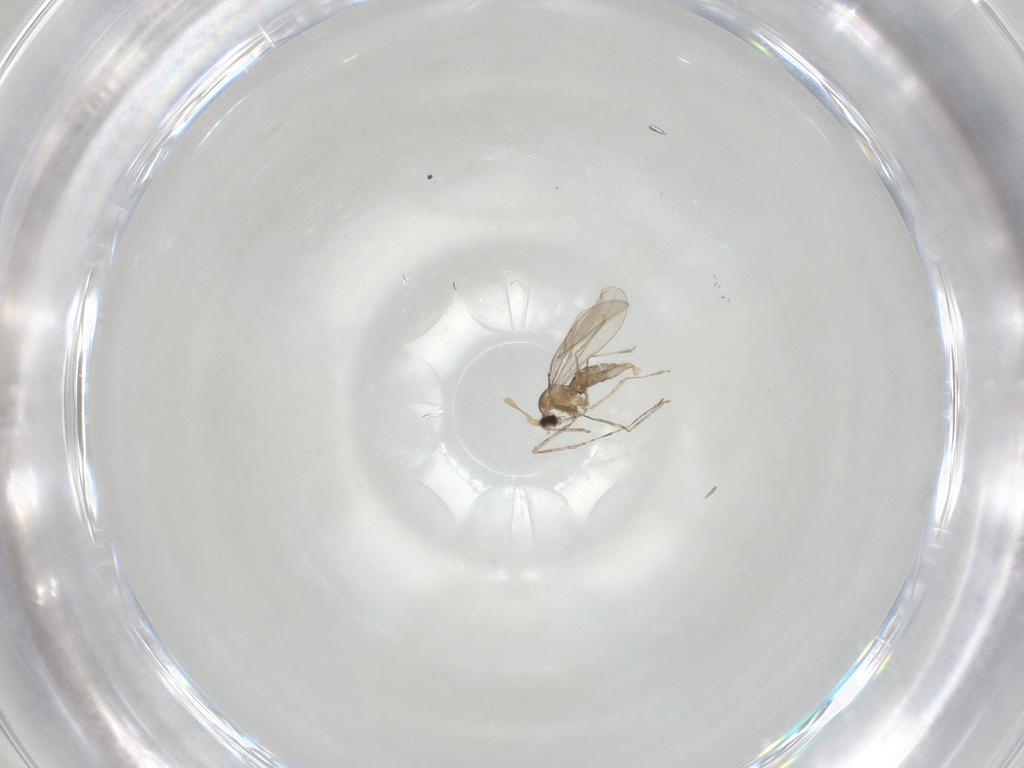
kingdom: Animalia
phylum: Arthropoda
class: Insecta
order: Diptera
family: Cecidomyiidae
